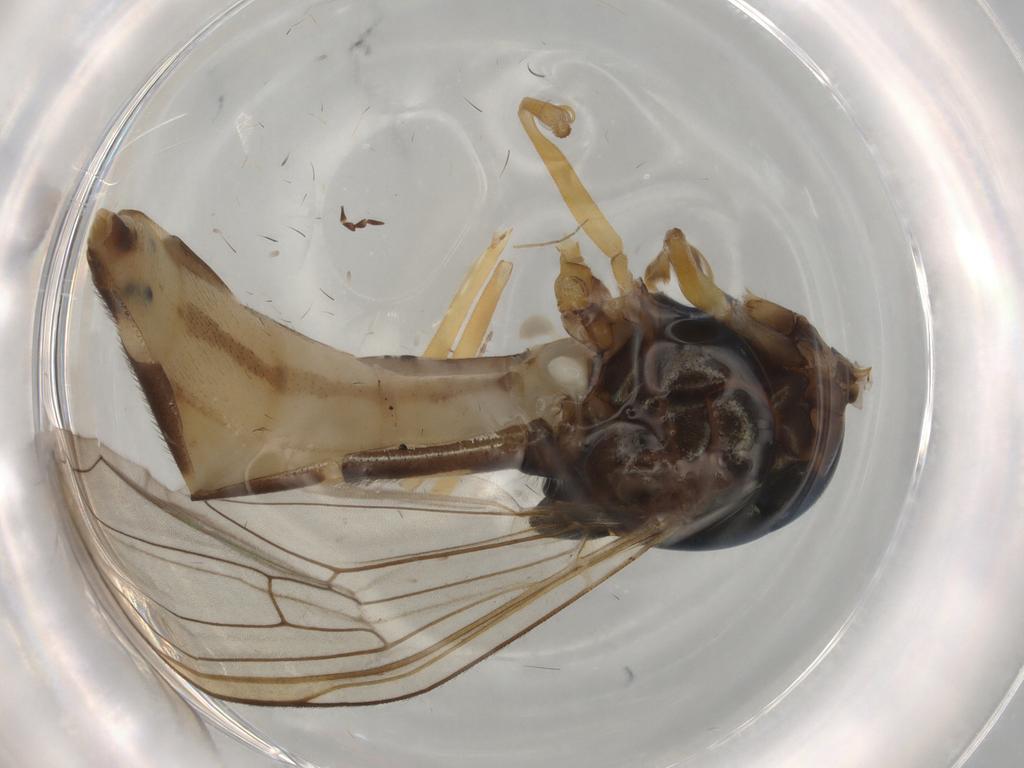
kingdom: Animalia
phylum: Arthropoda
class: Insecta
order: Diptera
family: Syrphidae
